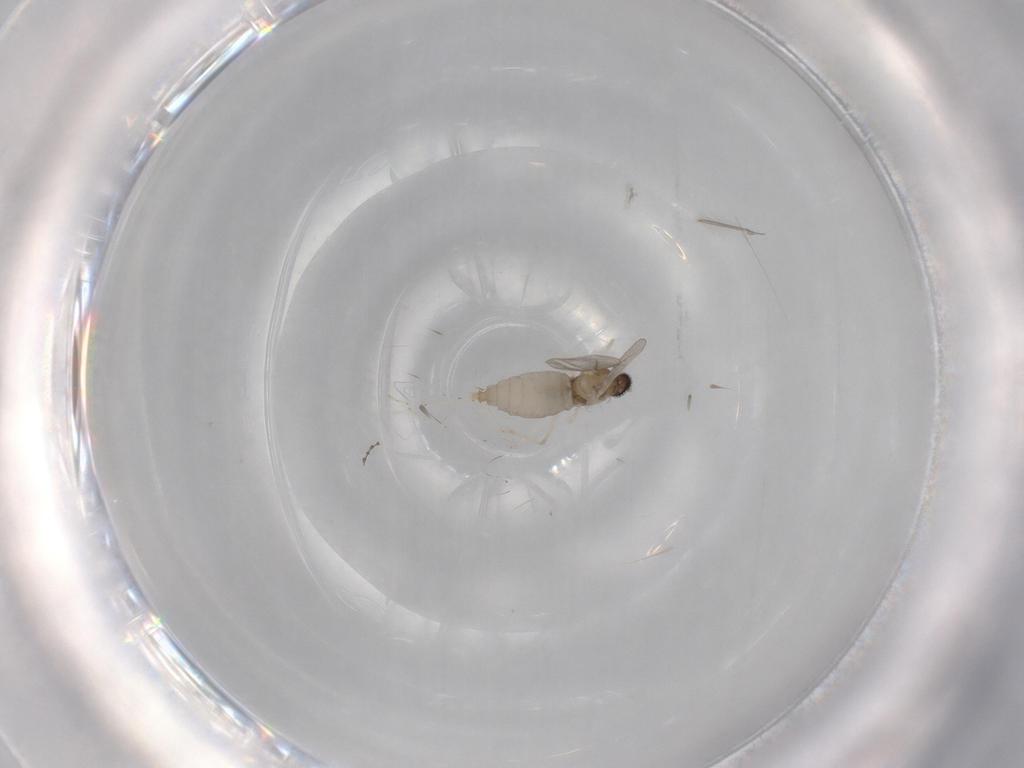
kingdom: Animalia
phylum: Arthropoda
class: Insecta
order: Diptera
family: Cecidomyiidae
